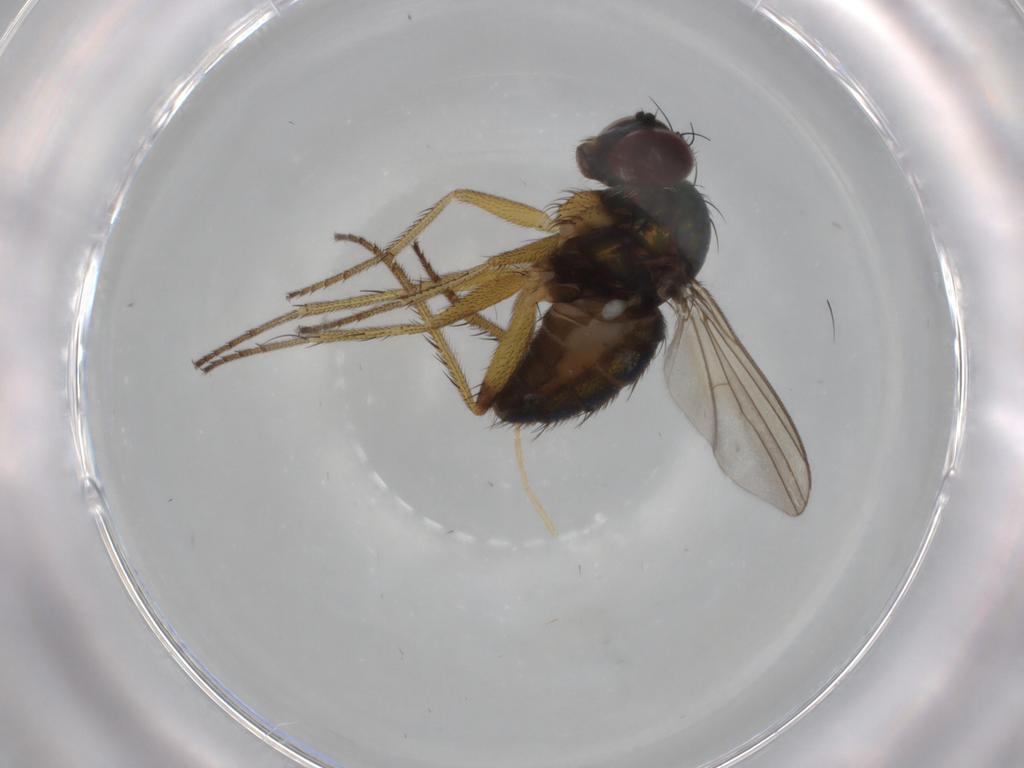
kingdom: Animalia
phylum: Arthropoda
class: Insecta
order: Diptera
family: Dolichopodidae
